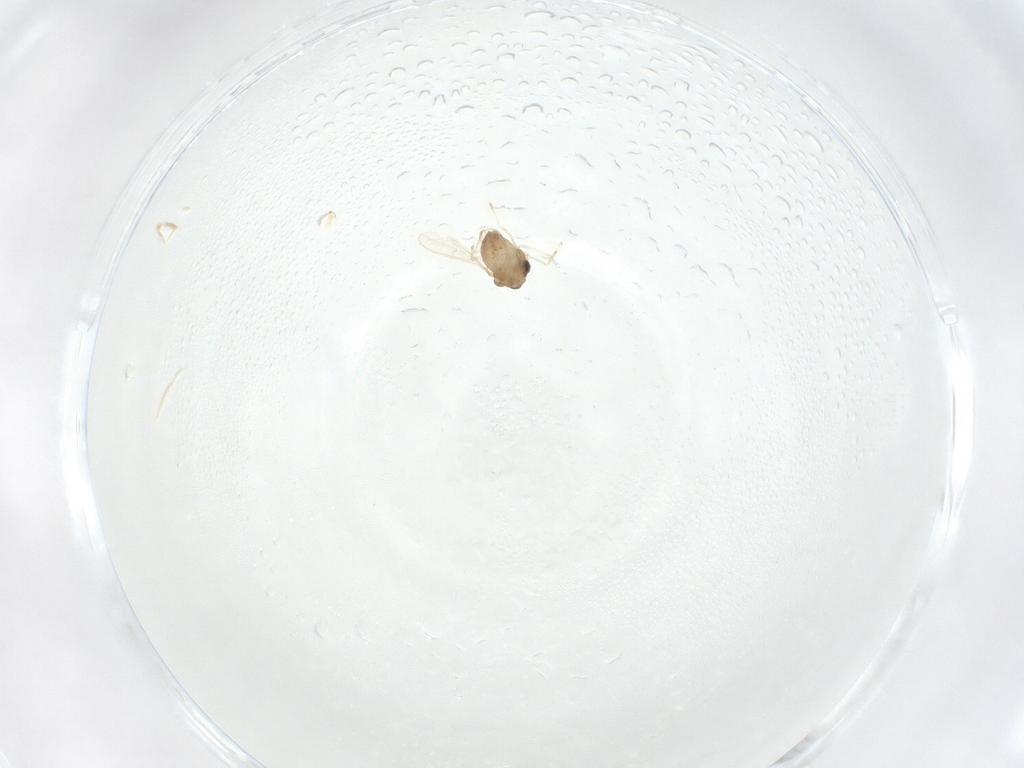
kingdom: Animalia
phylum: Arthropoda
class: Insecta
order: Diptera
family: Chironomidae
